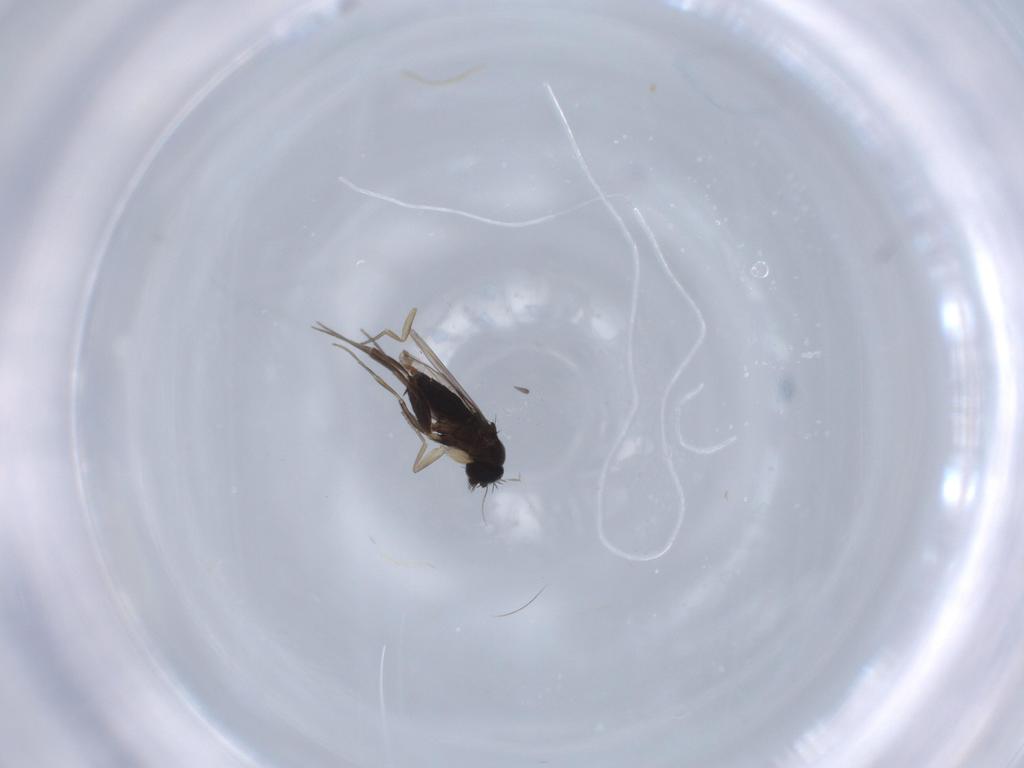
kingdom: Animalia
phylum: Arthropoda
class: Insecta
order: Diptera
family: Phoridae
